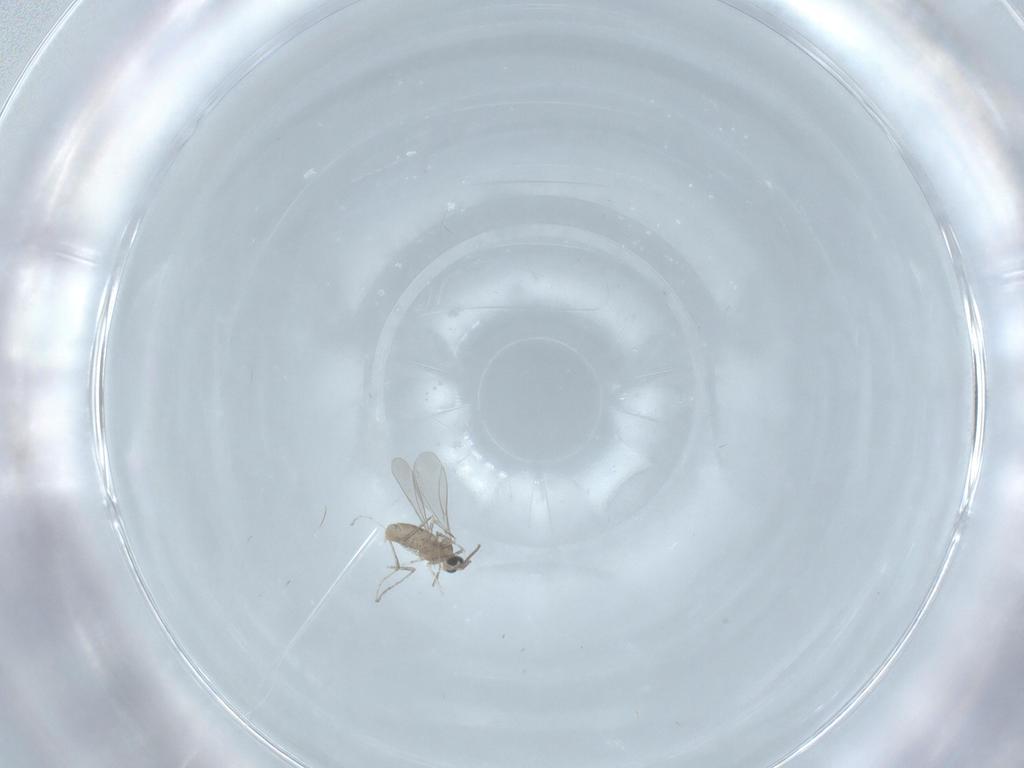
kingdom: Animalia
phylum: Arthropoda
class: Insecta
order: Diptera
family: Psychodidae
